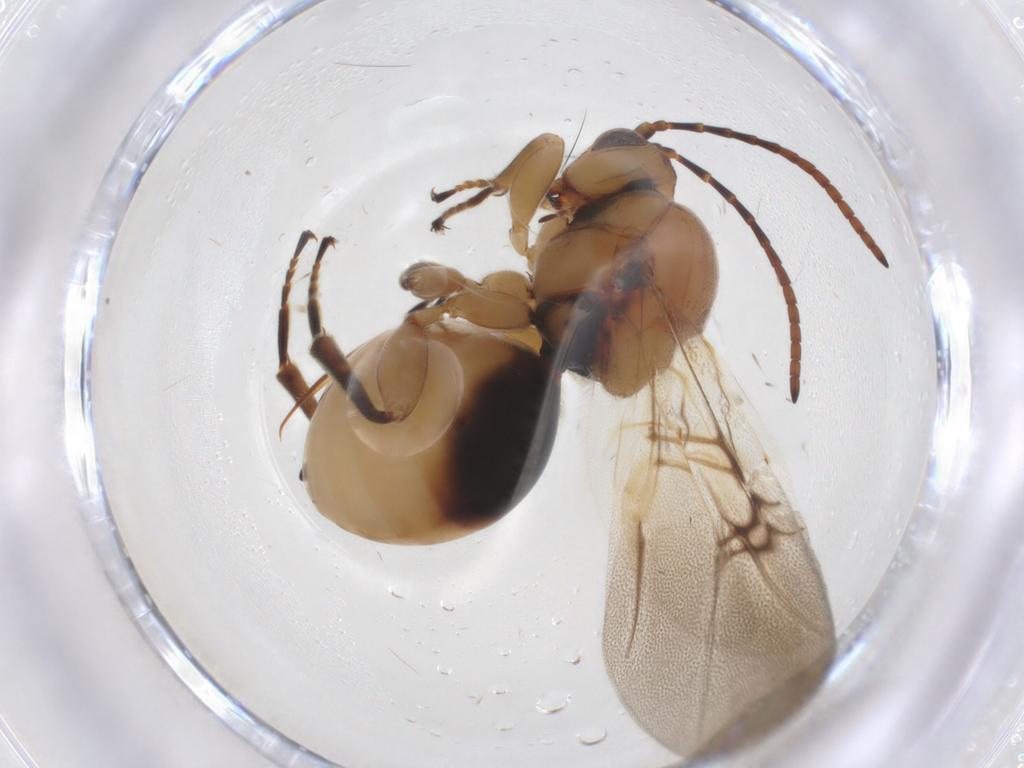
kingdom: Animalia
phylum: Arthropoda
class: Insecta
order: Hymenoptera
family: Cynipidae
